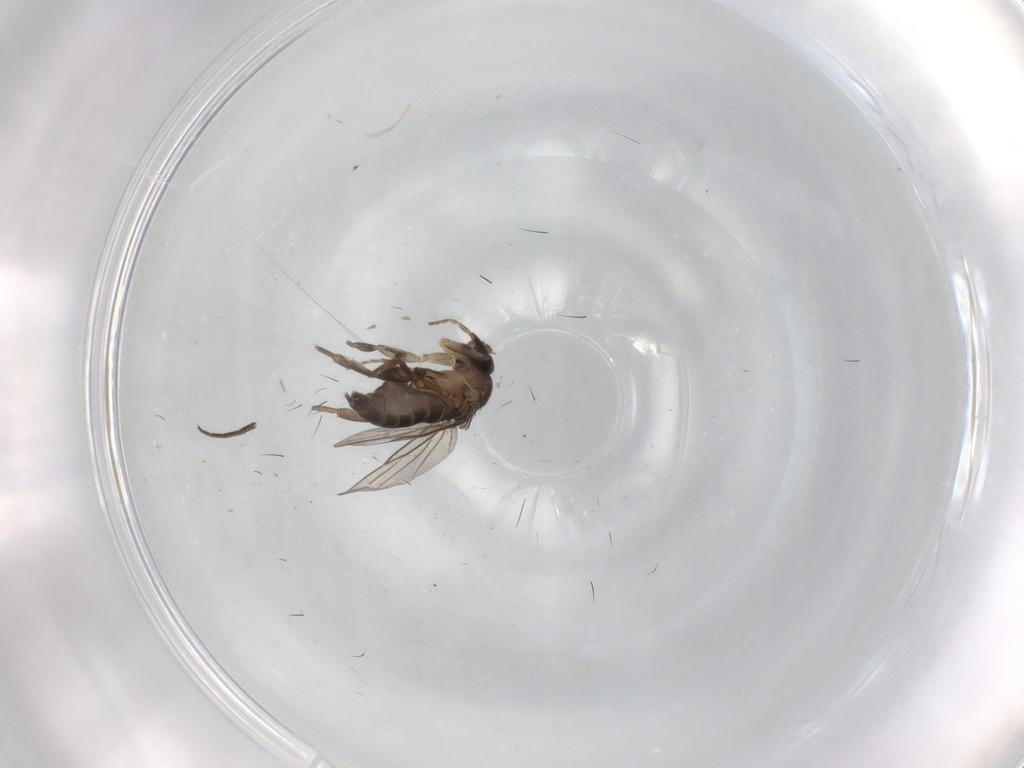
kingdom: Animalia
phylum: Arthropoda
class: Insecta
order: Diptera
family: Phoridae
